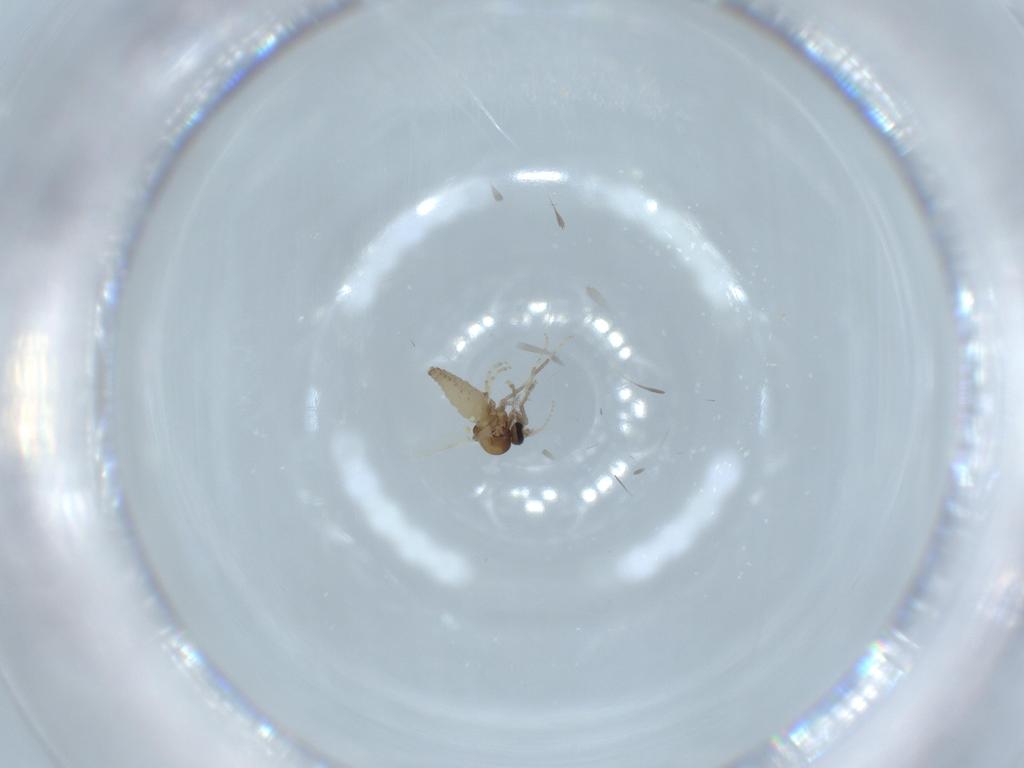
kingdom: Animalia
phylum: Arthropoda
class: Insecta
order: Diptera
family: Ceratopogonidae
